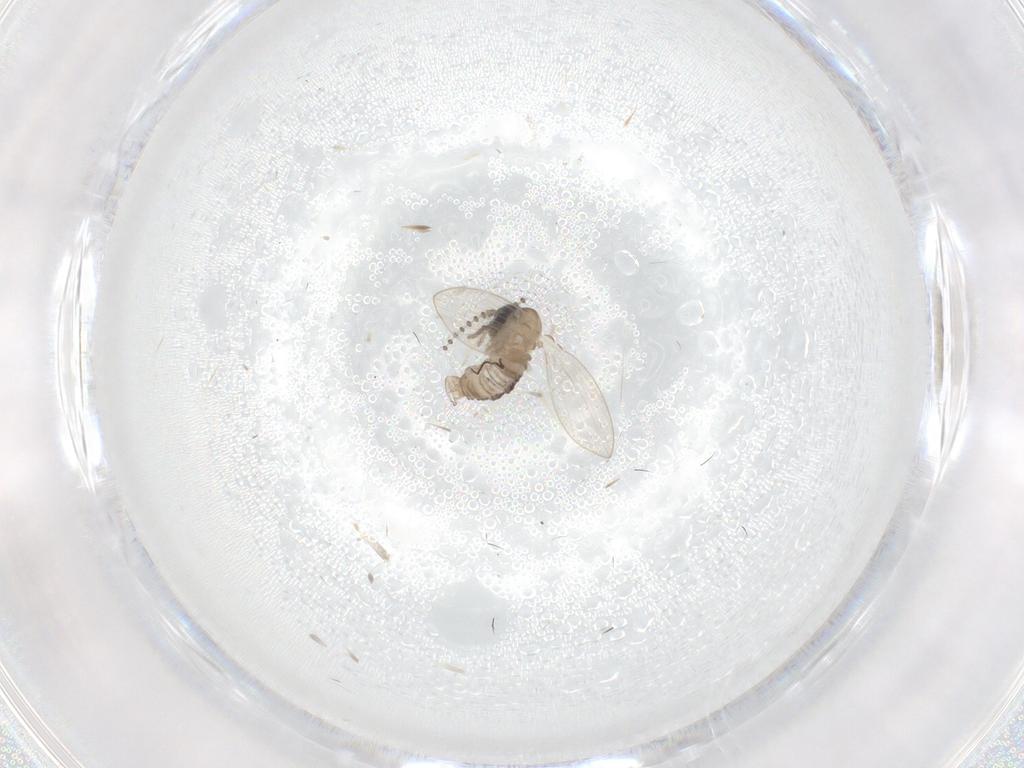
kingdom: Animalia
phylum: Arthropoda
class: Insecta
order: Diptera
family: Psychodidae
